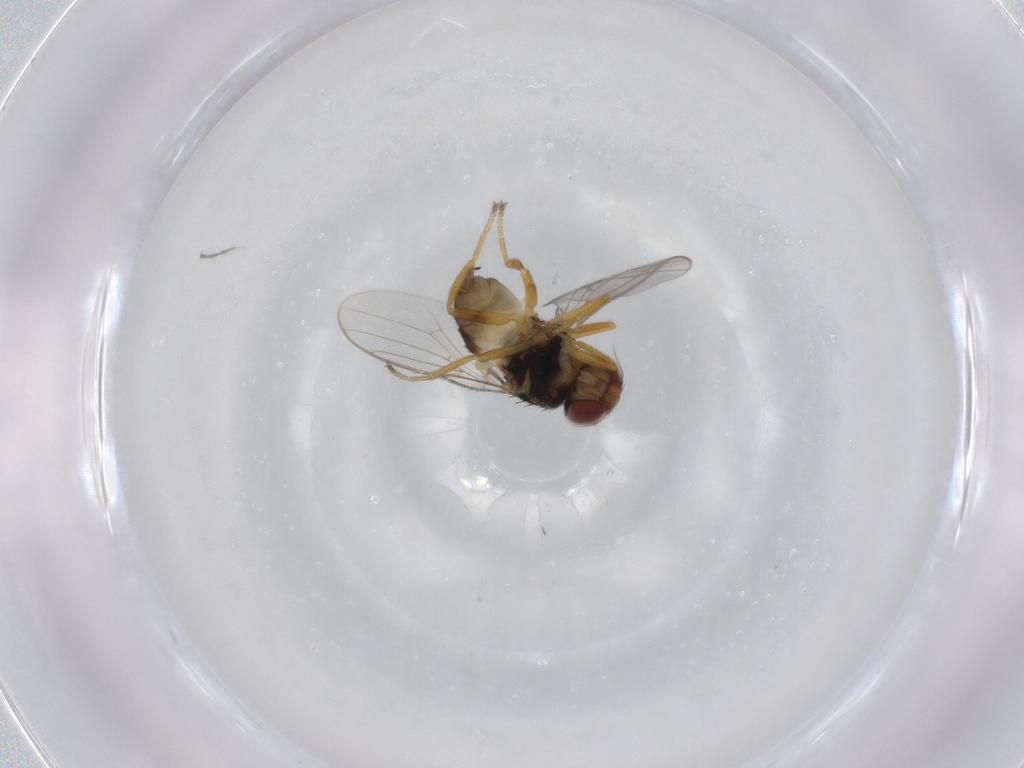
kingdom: Animalia
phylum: Arthropoda
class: Insecta
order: Diptera
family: Chloropidae
